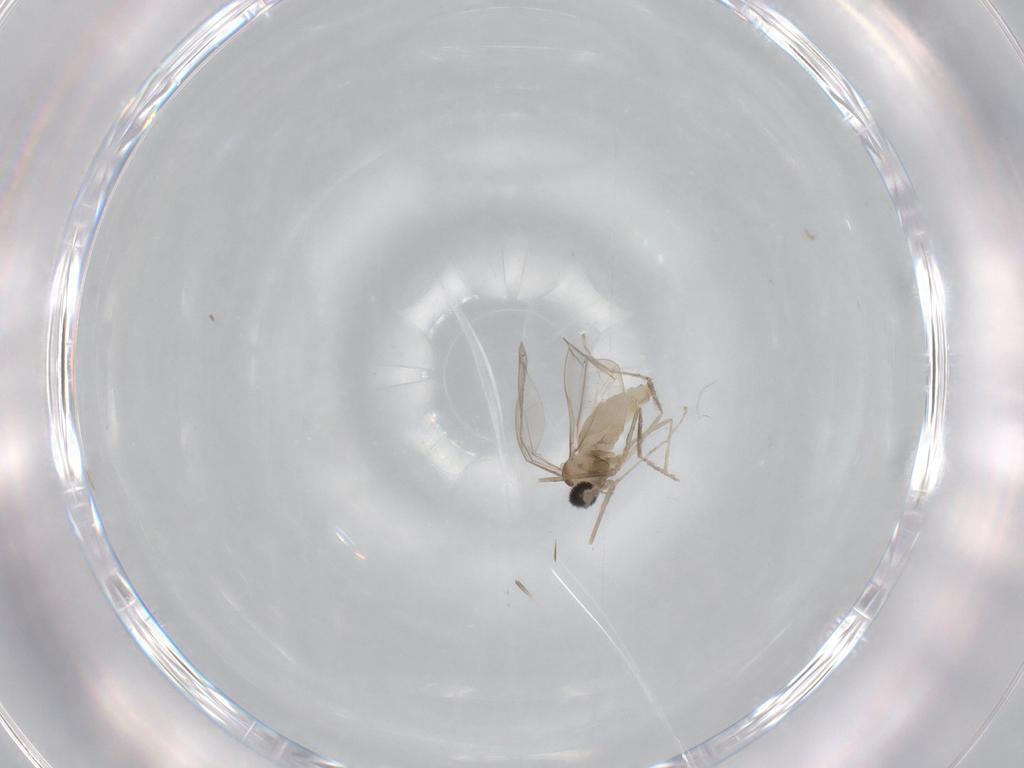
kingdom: Animalia
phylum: Arthropoda
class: Insecta
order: Diptera
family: Cecidomyiidae
